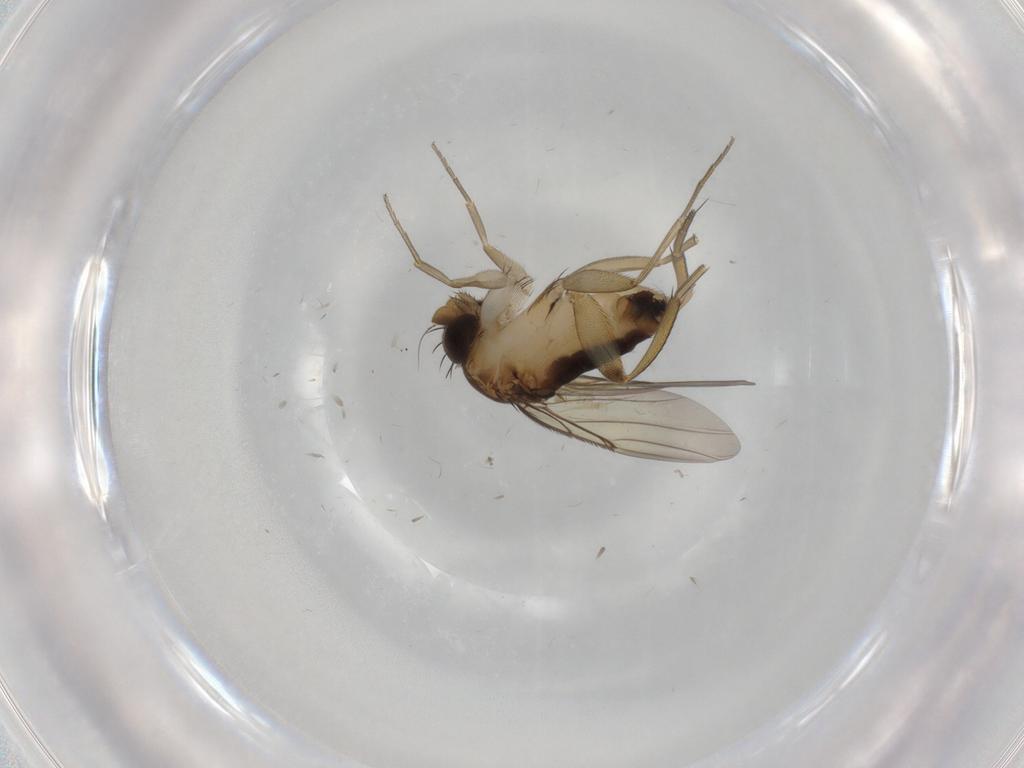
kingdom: Animalia
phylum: Arthropoda
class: Insecta
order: Diptera
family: Phoridae
